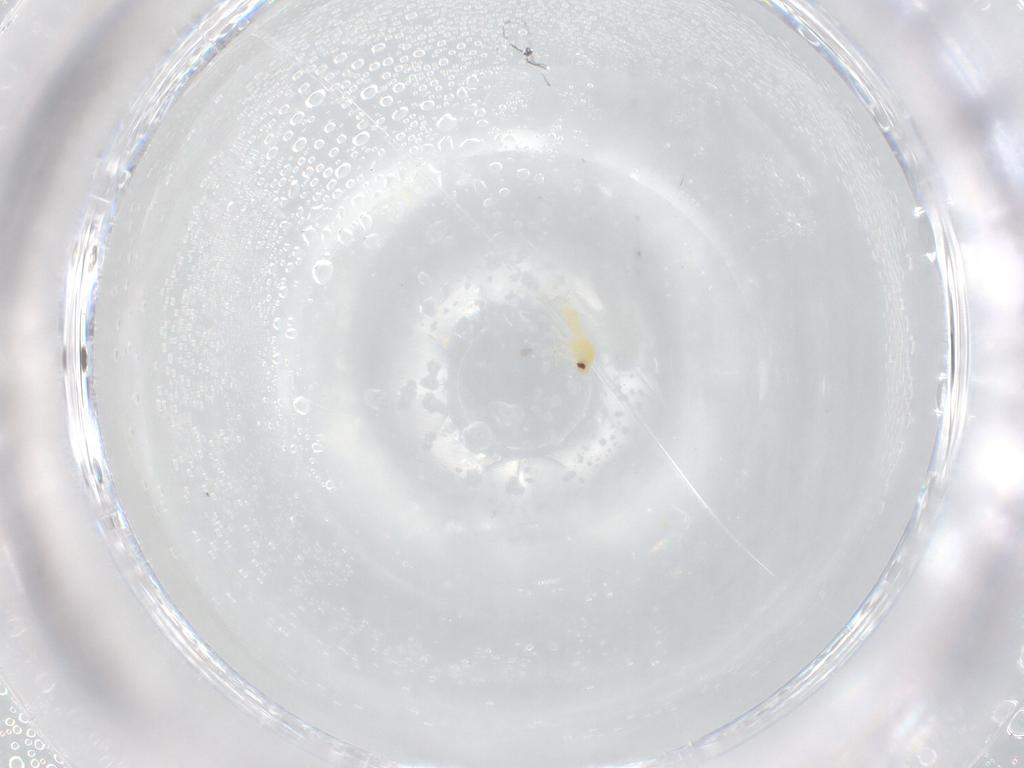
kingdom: Animalia
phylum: Arthropoda
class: Insecta
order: Hemiptera
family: Aleyrodidae
